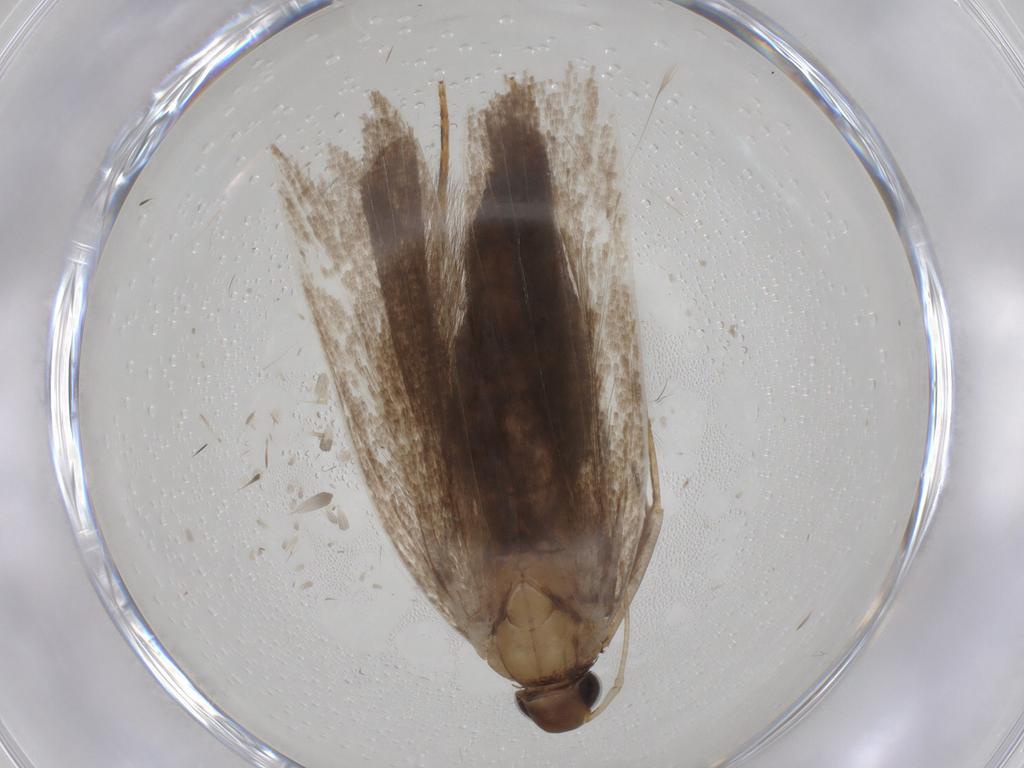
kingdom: Animalia
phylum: Arthropoda
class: Insecta
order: Lepidoptera
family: Gelechiidae
